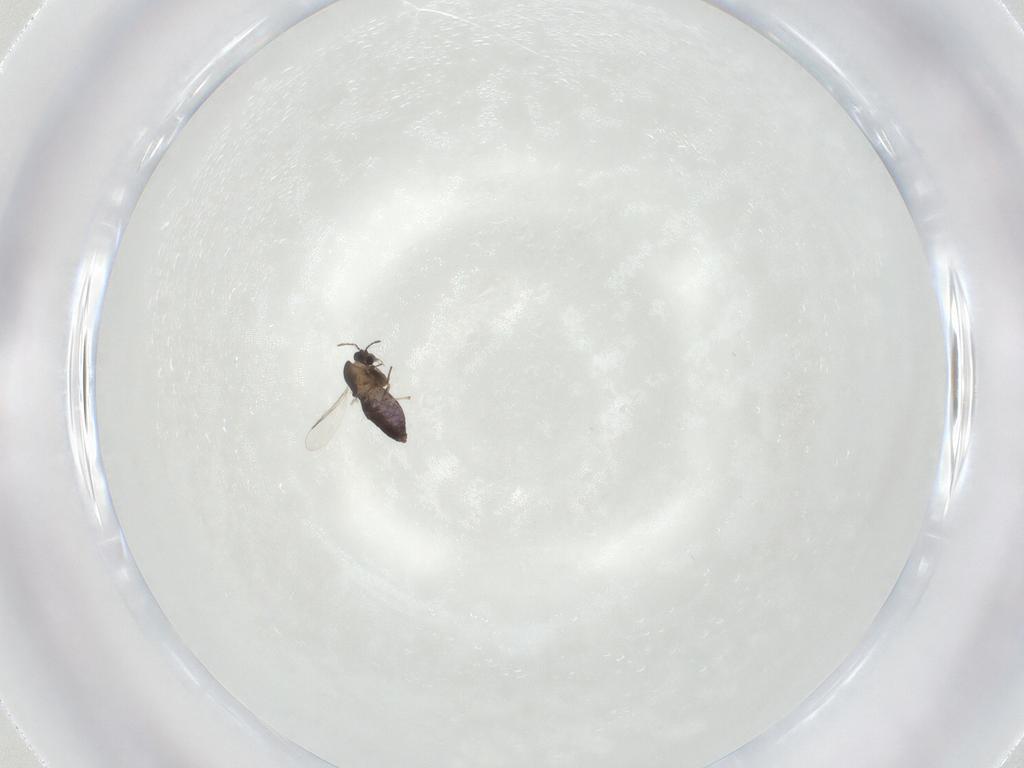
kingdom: Animalia
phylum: Arthropoda
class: Insecta
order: Diptera
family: Chironomidae
